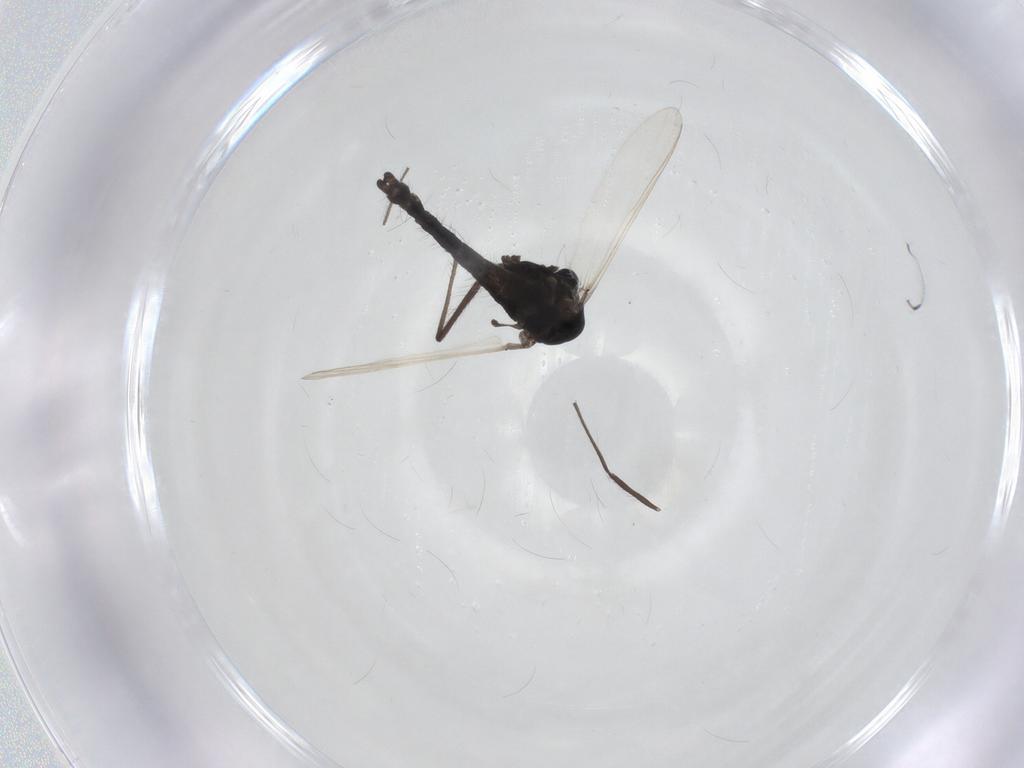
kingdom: Animalia
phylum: Arthropoda
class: Insecta
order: Diptera
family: Chironomidae
